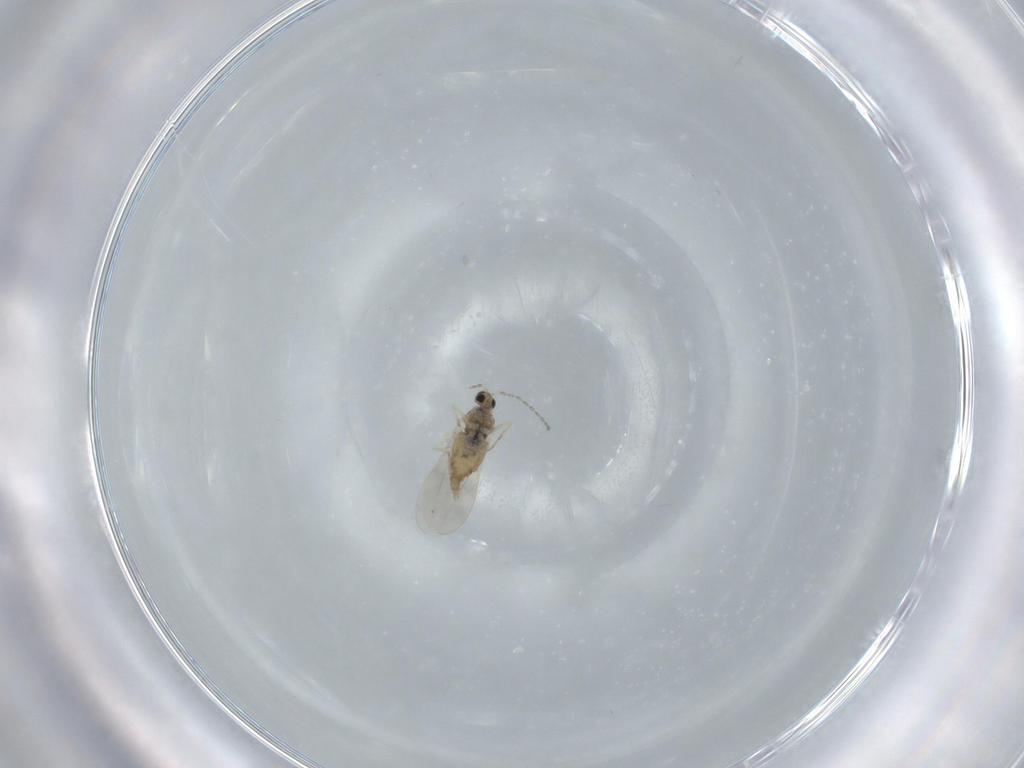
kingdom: Animalia
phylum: Arthropoda
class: Insecta
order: Diptera
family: Cecidomyiidae
